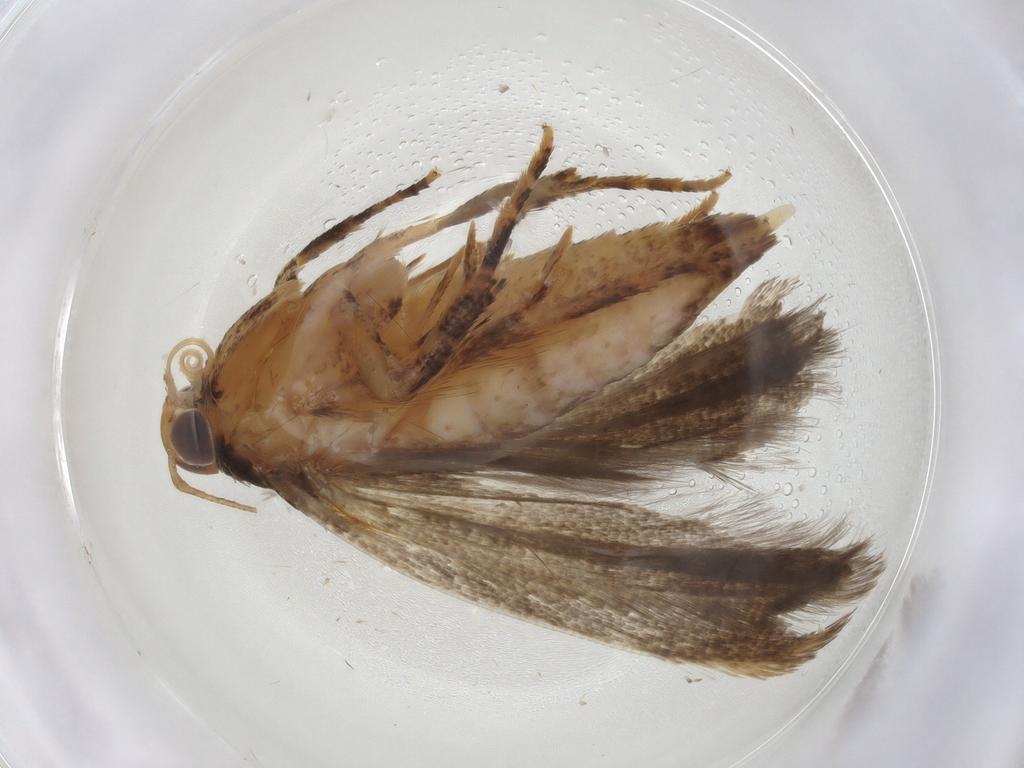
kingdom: Animalia
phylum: Arthropoda
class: Insecta
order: Lepidoptera
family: Gelechiidae
